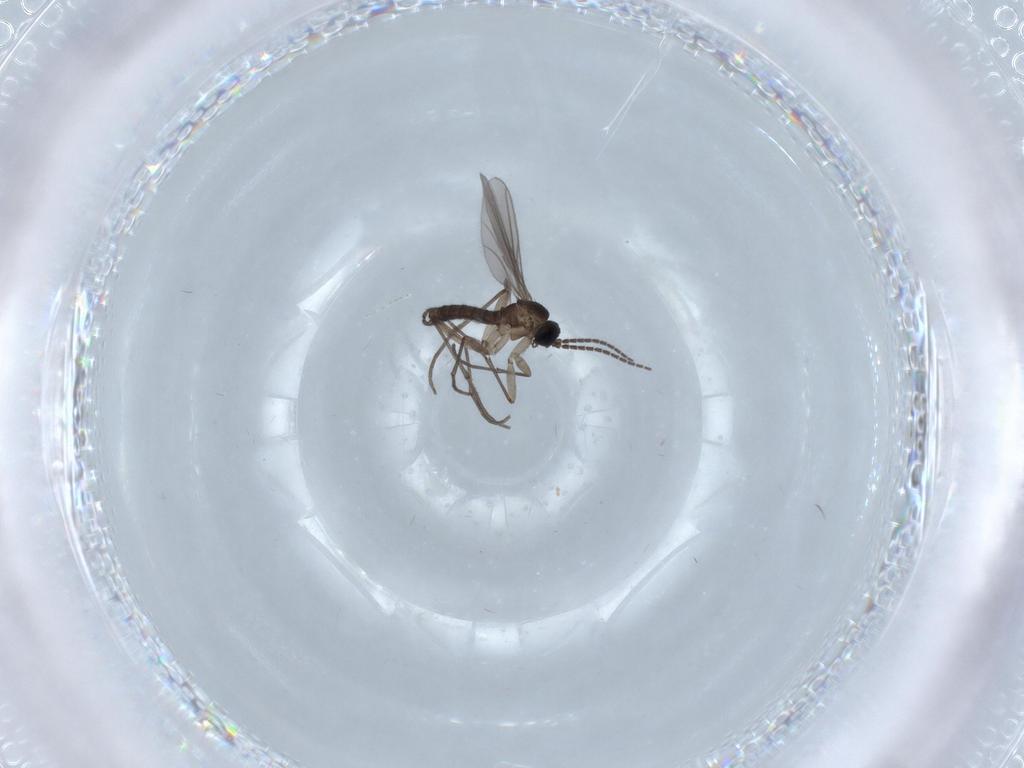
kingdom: Animalia
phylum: Arthropoda
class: Insecta
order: Diptera
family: Sciaridae
